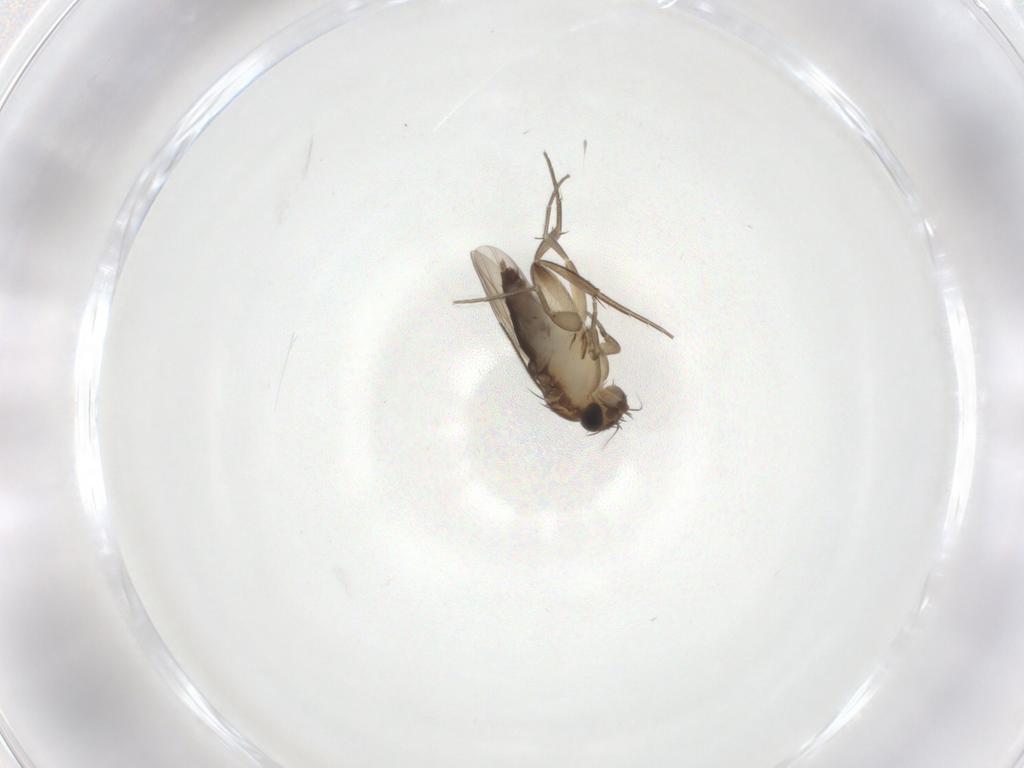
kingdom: Animalia
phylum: Arthropoda
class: Insecta
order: Diptera
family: Phoridae
